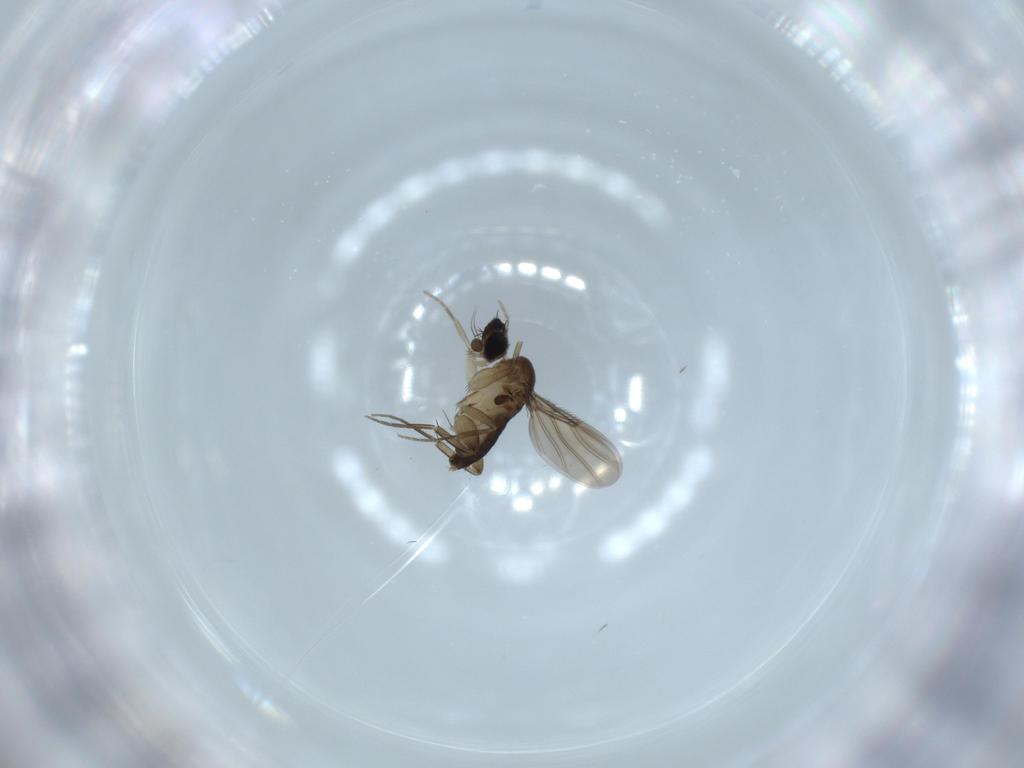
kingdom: Animalia
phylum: Arthropoda
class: Insecta
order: Diptera
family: Phoridae
